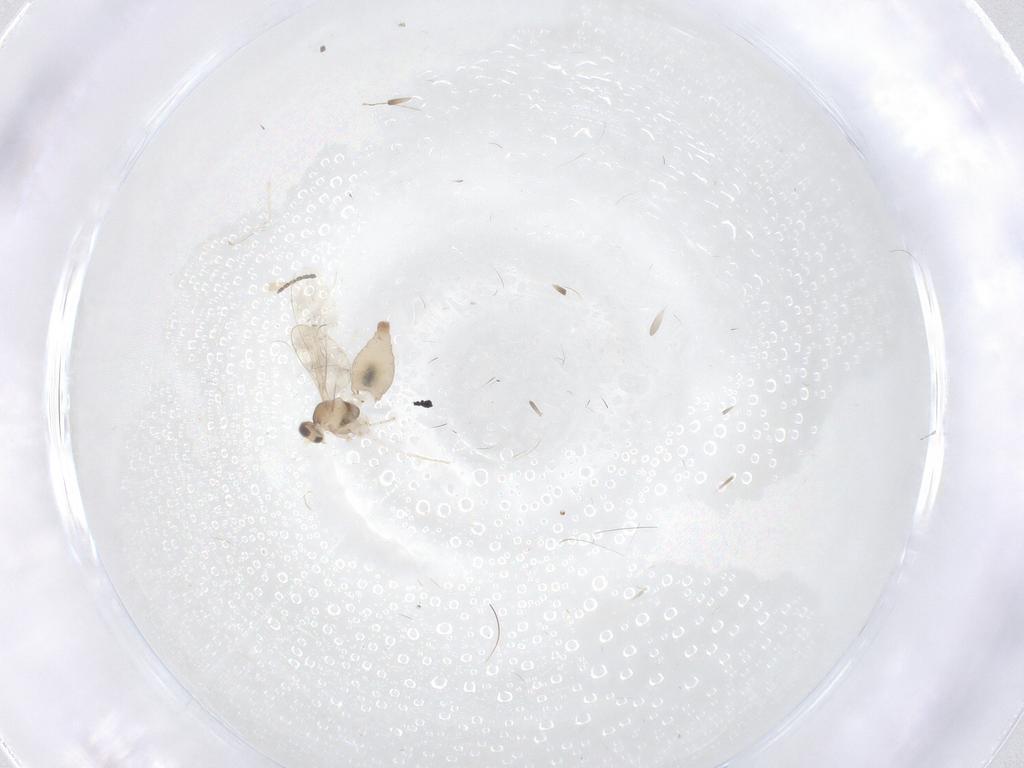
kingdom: Animalia
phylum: Arthropoda
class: Insecta
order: Diptera
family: Cecidomyiidae
